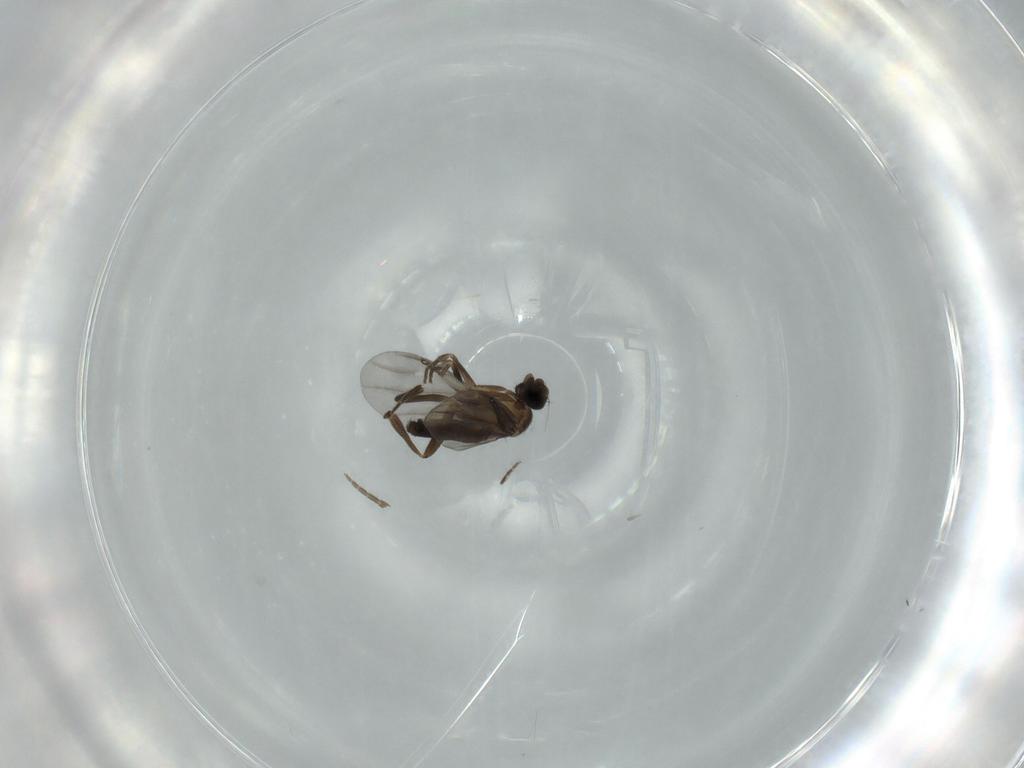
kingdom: Animalia
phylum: Arthropoda
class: Insecta
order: Diptera
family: Phoridae
